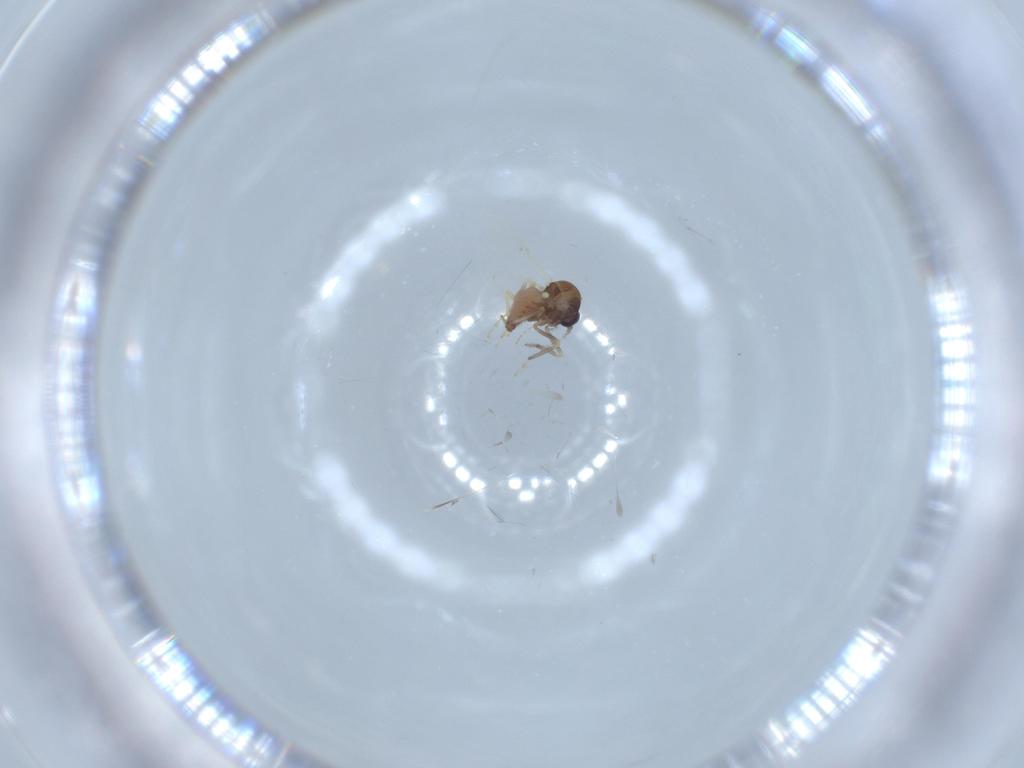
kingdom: Animalia
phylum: Arthropoda
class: Insecta
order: Diptera
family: Ceratopogonidae
